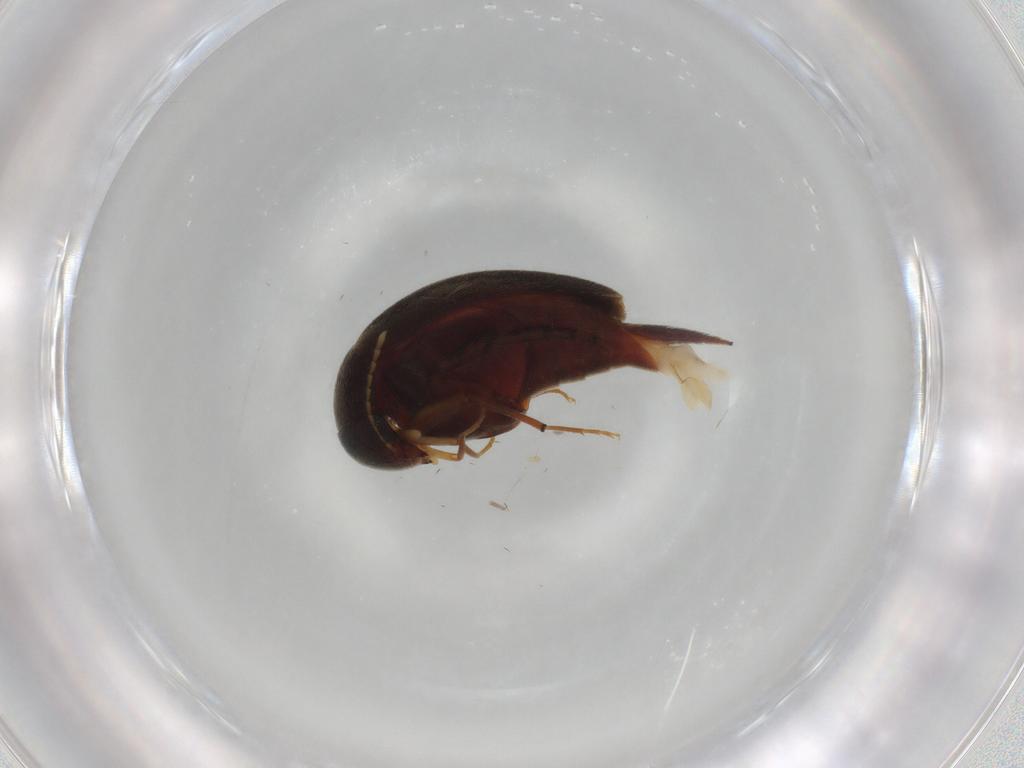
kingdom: Animalia
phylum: Arthropoda
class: Insecta
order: Coleoptera
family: Mordellidae
